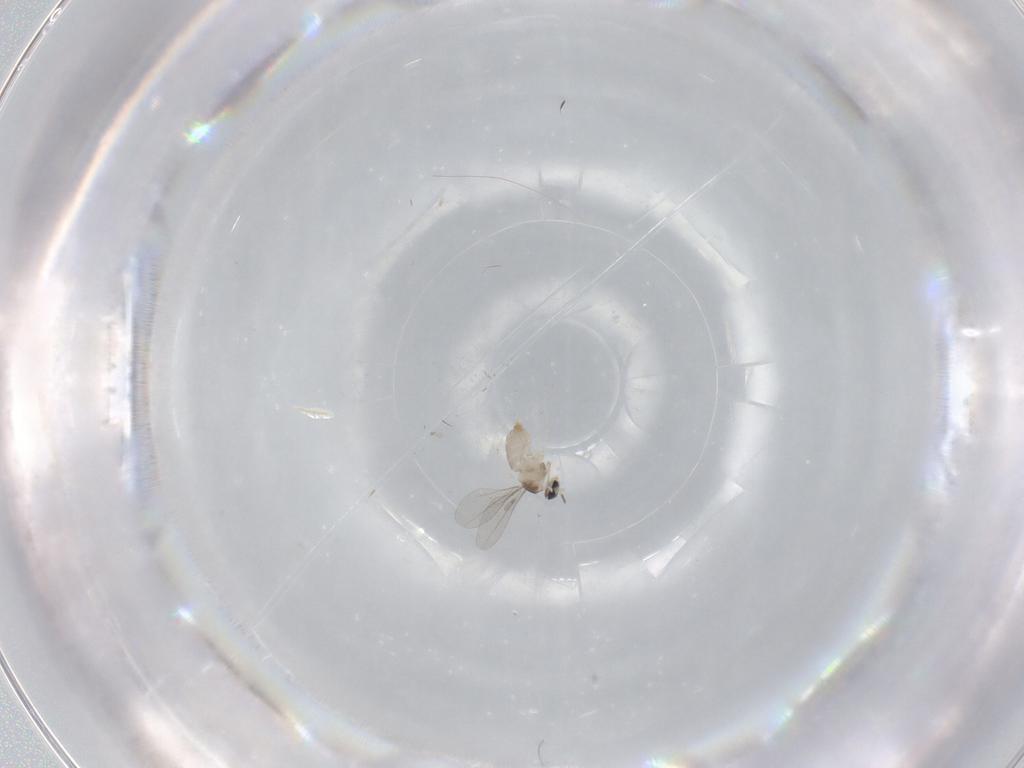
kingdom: Animalia
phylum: Arthropoda
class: Insecta
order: Diptera
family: Cecidomyiidae
